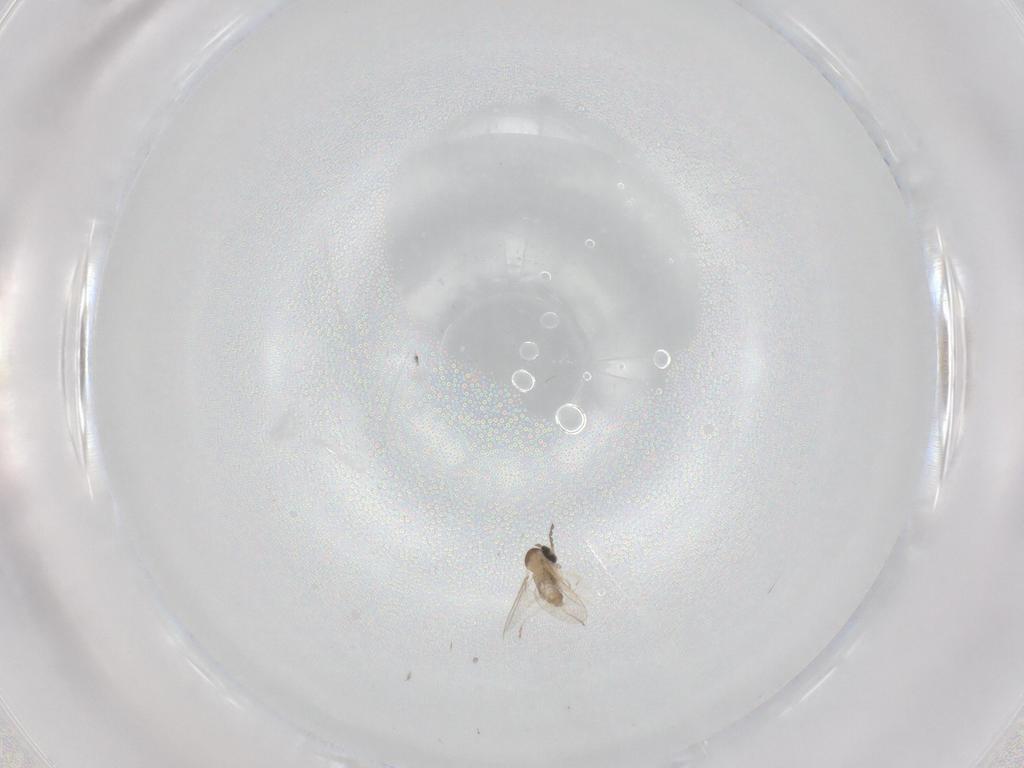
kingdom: Animalia
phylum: Arthropoda
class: Insecta
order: Diptera
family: Cecidomyiidae
